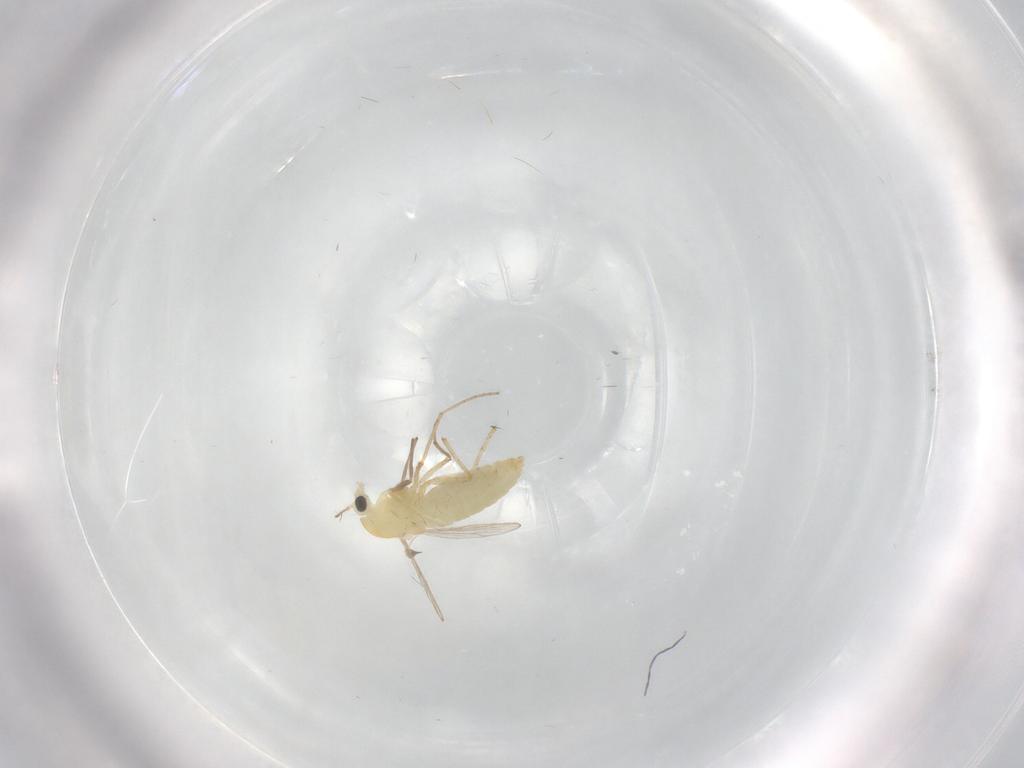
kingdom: Animalia
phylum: Arthropoda
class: Insecta
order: Diptera
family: Chironomidae
